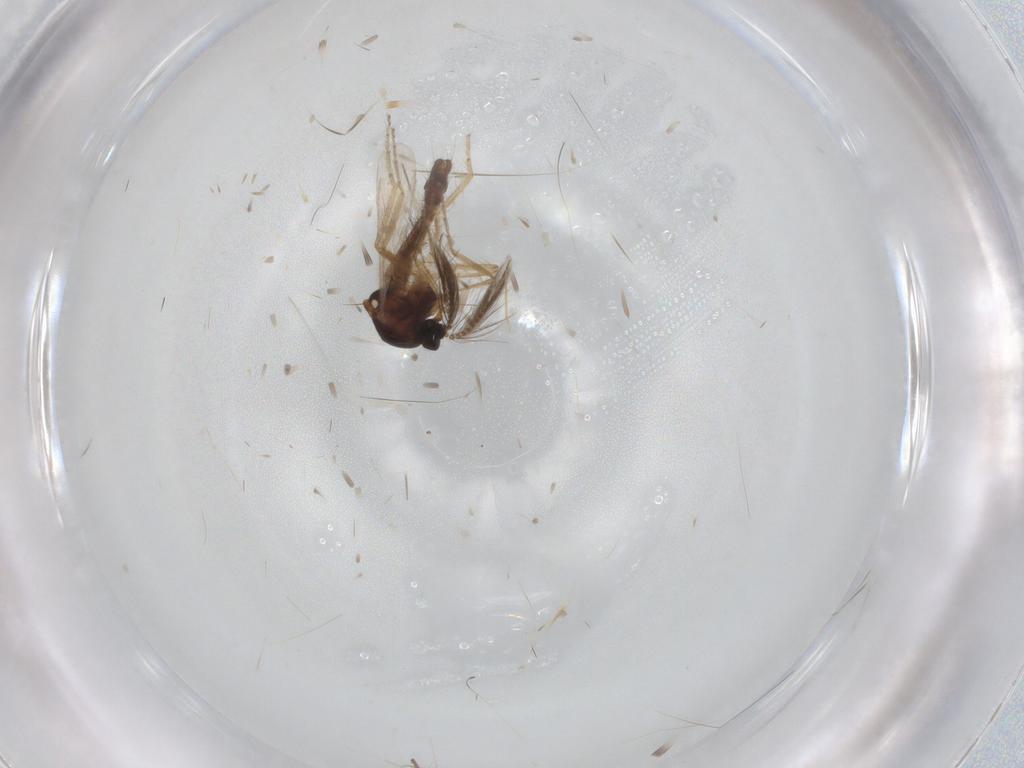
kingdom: Animalia
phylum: Arthropoda
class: Insecta
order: Diptera
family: Ceratopogonidae
